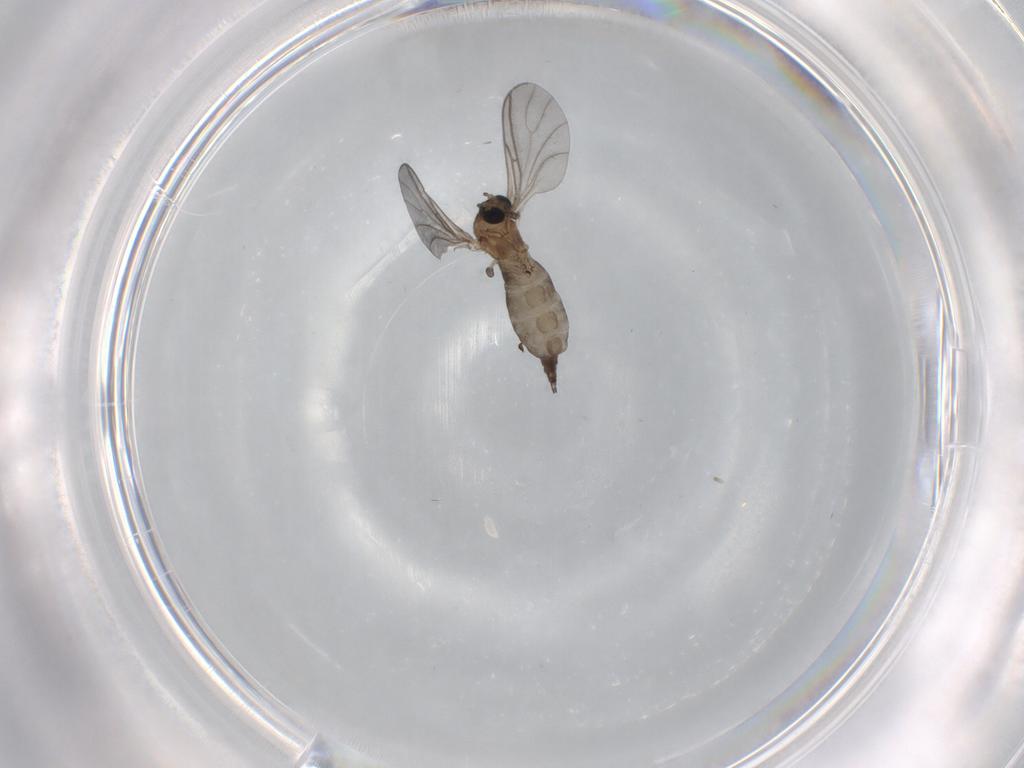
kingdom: Animalia
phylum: Arthropoda
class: Insecta
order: Diptera
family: Sciaridae
